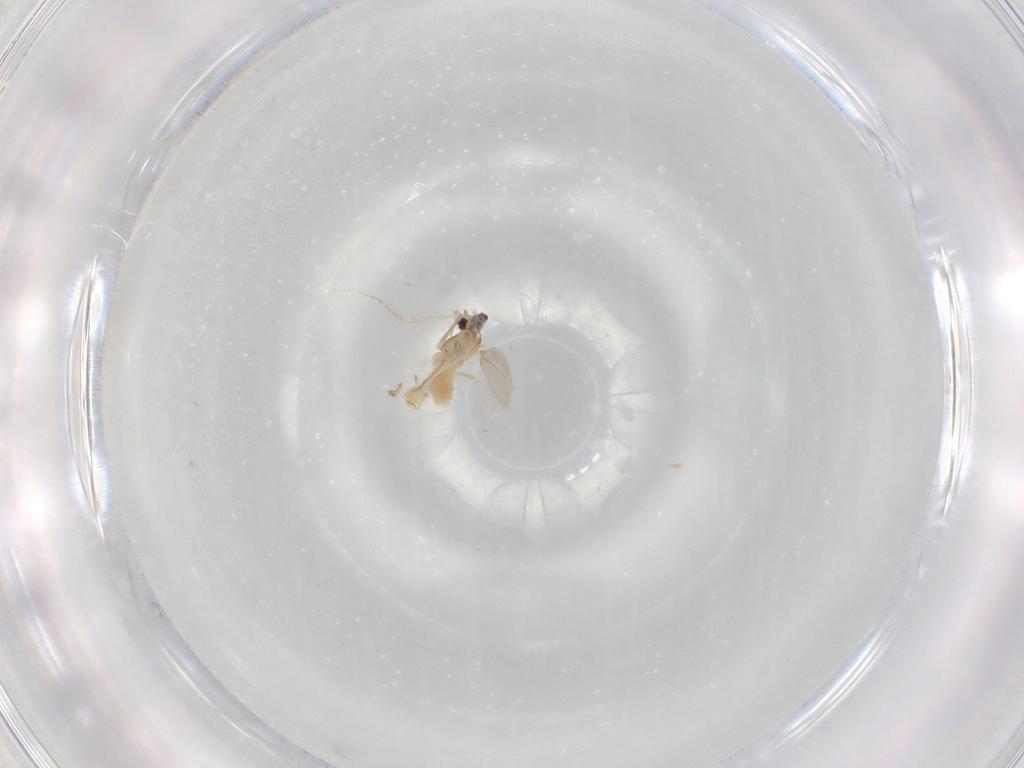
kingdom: Animalia
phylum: Arthropoda
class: Insecta
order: Diptera
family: Cecidomyiidae
